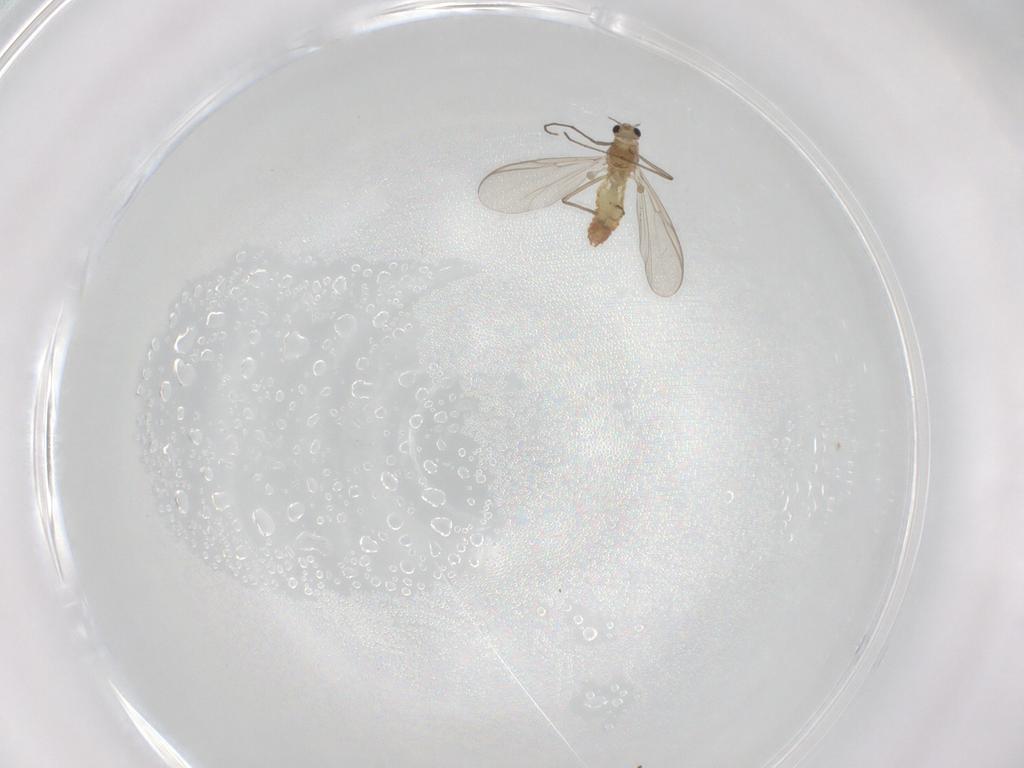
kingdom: Animalia
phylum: Arthropoda
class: Insecta
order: Diptera
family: Chironomidae
